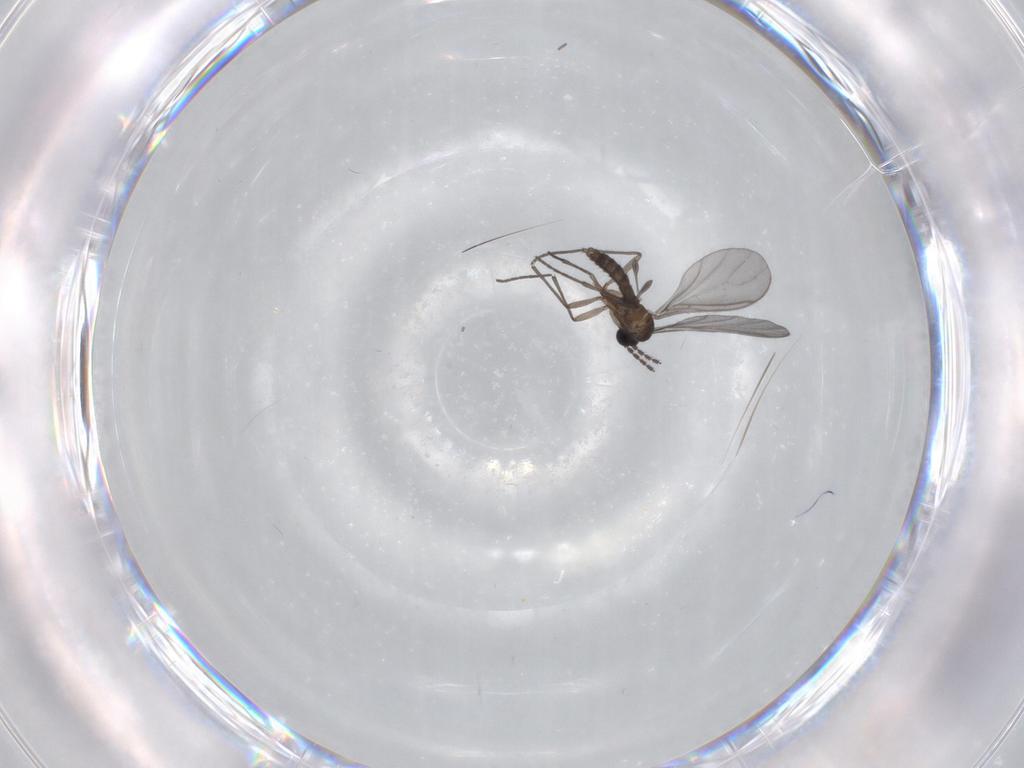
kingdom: Animalia
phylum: Arthropoda
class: Insecta
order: Diptera
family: Sciaridae
